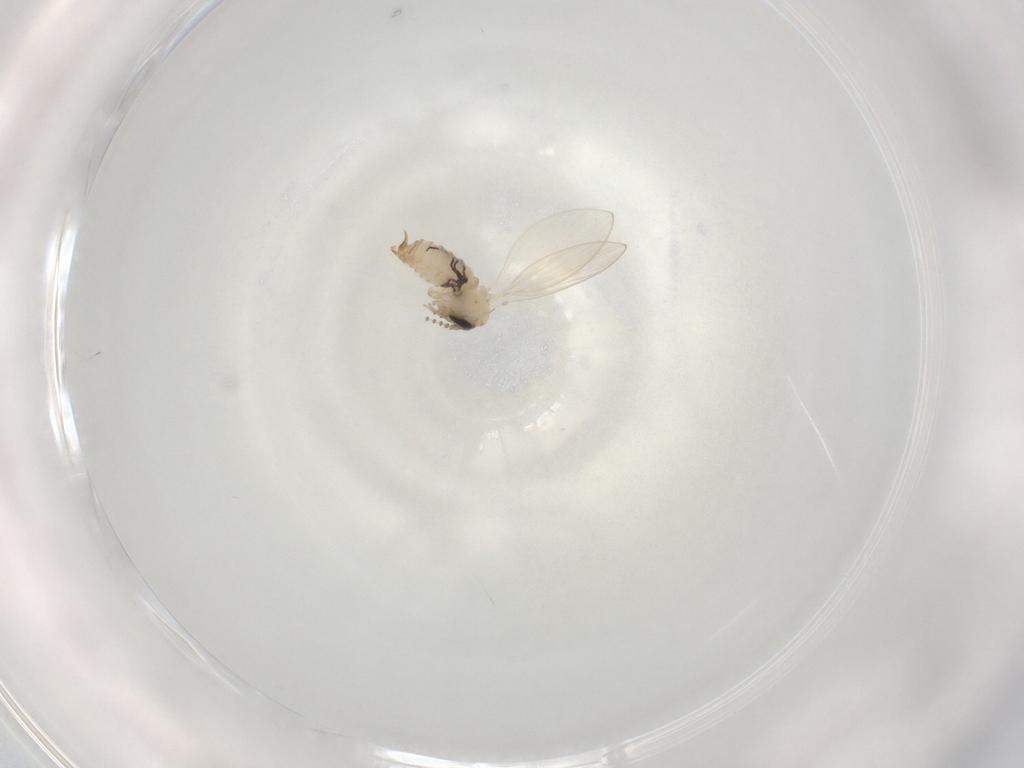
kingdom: Animalia
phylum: Arthropoda
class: Insecta
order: Diptera
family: Psychodidae
